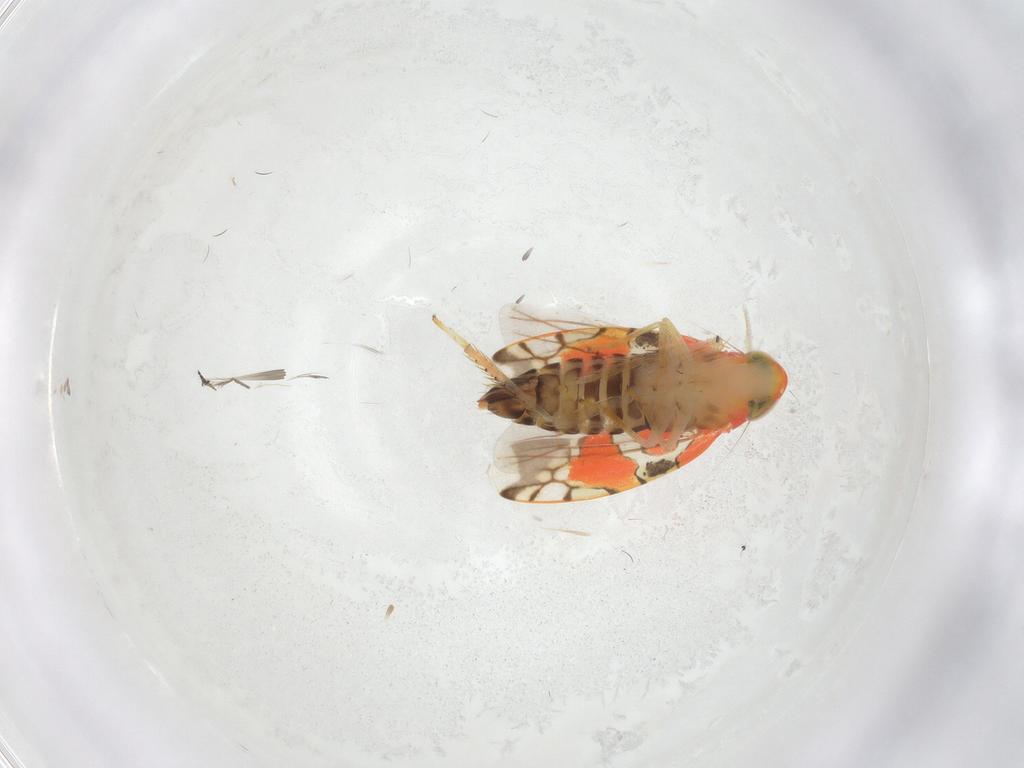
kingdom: Animalia
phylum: Arthropoda
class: Insecta
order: Hemiptera
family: Cicadellidae
